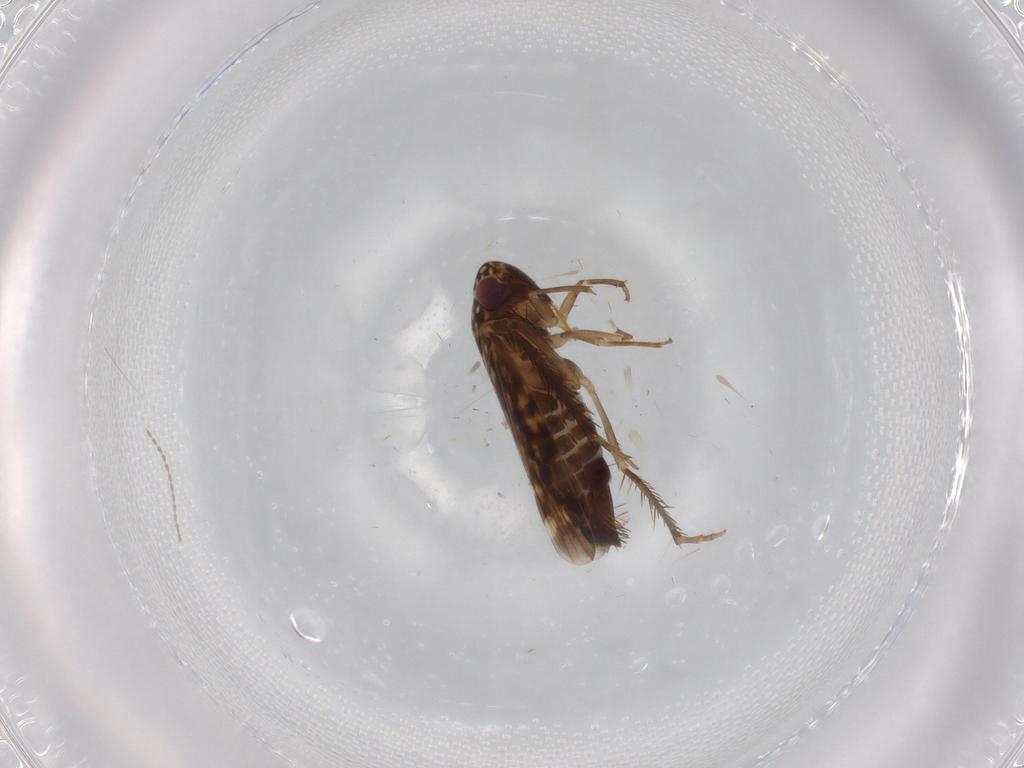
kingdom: Animalia
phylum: Arthropoda
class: Insecta
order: Hemiptera
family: Cicadellidae
